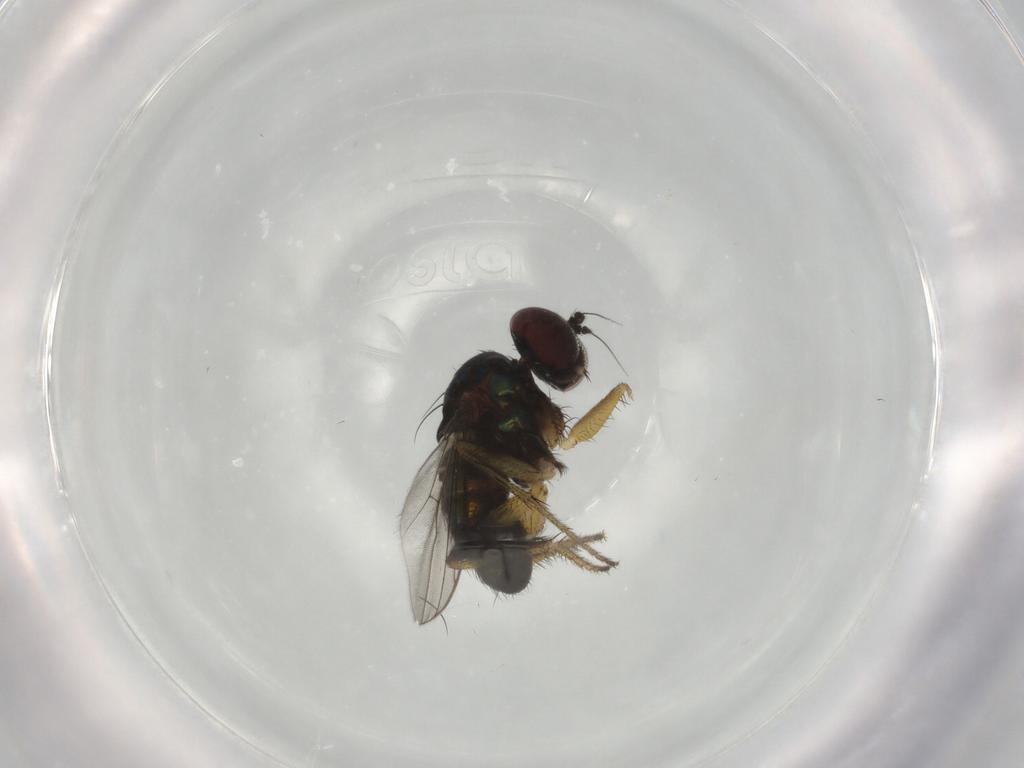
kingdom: Animalia
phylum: Arthropoda
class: Insecta
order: Diptera
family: Dolichopodidae
